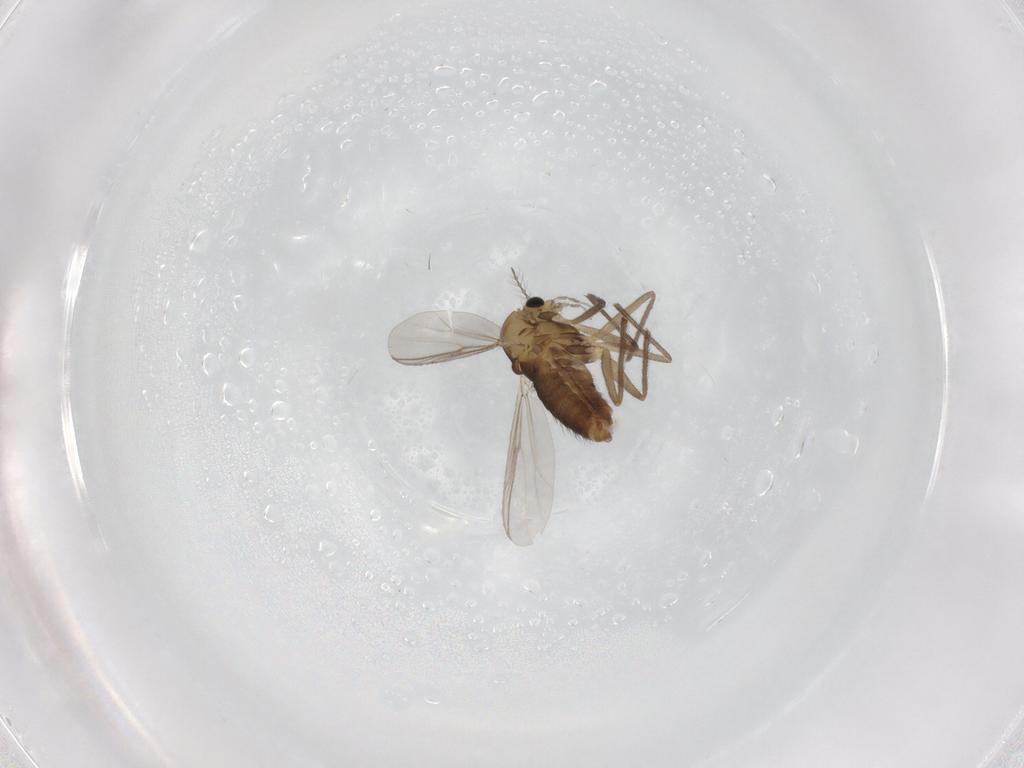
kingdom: Animalia
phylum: Arthropoda
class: Insecta
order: Diptera
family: Chironomidae
